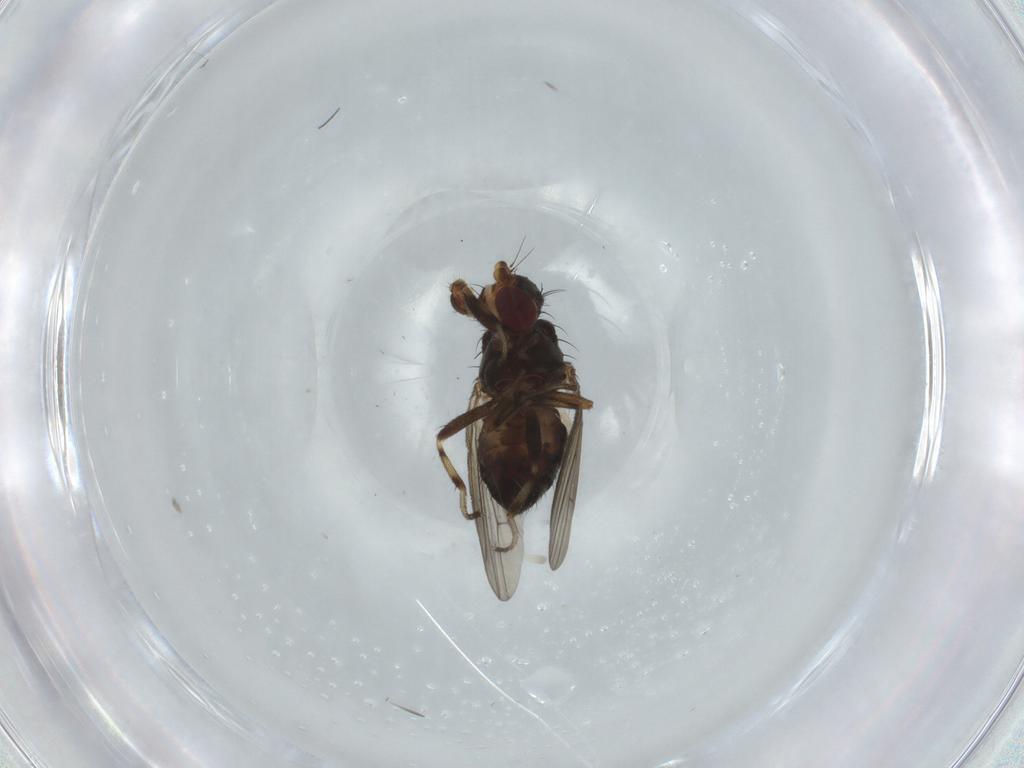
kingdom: Animalia
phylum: Arthropoda
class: Insecta
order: Diptera
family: Heleomyzidae
